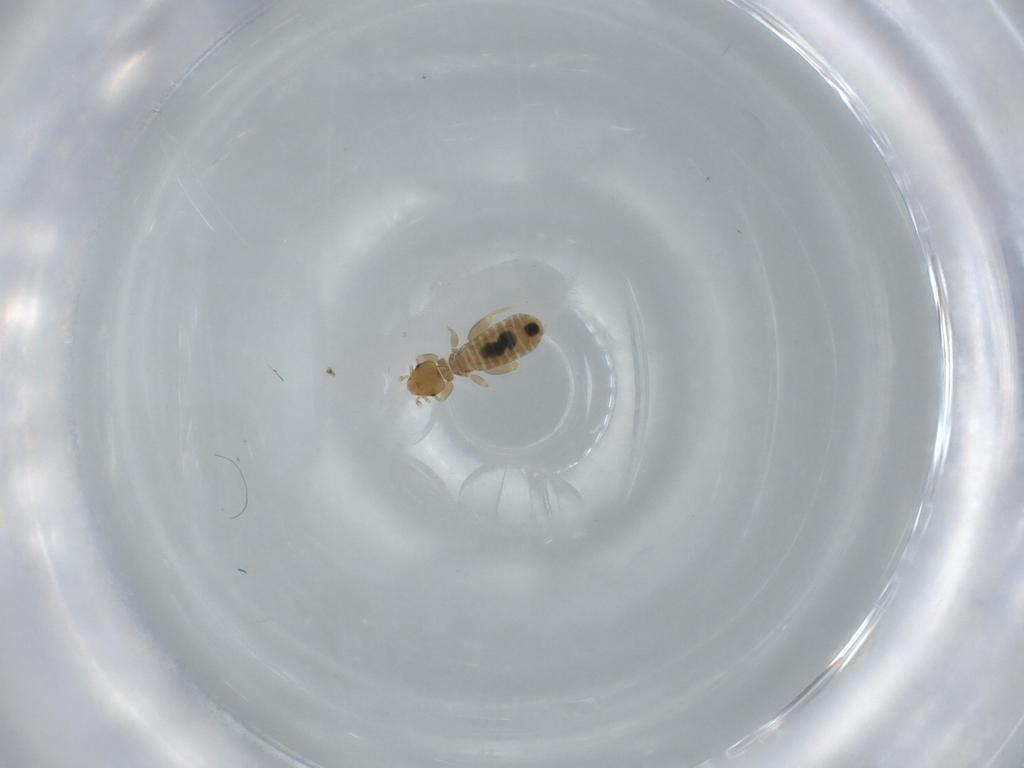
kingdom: Animalia
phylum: Arthropoda
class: Insecta
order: Diptera
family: Limoniidae
